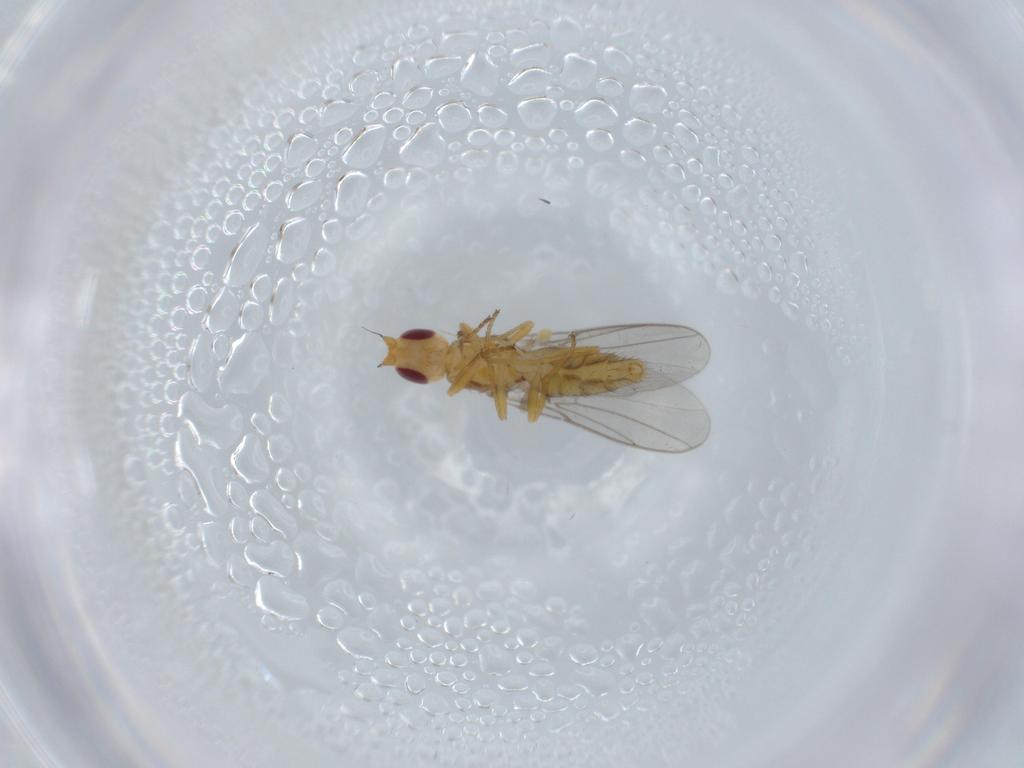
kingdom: Animalia
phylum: Arthropoda
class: Insecta
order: Diptera
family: Chloropidae
